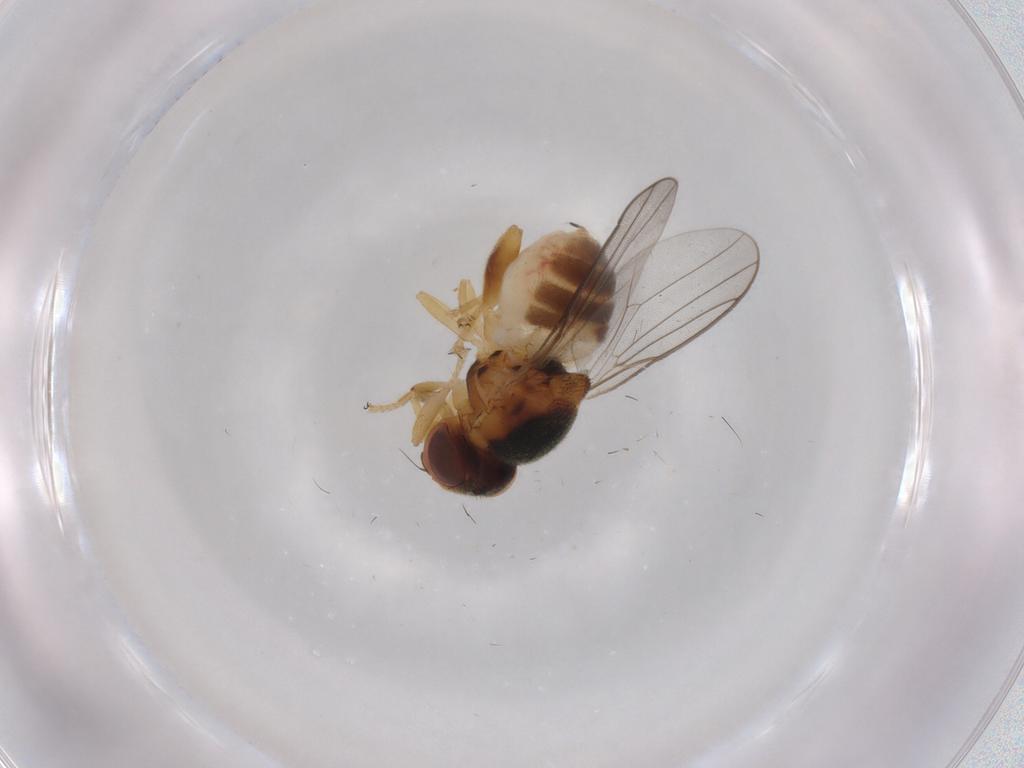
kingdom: Animalia
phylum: Arthropoda
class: Insecta
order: Diptera
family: Chloropidae
